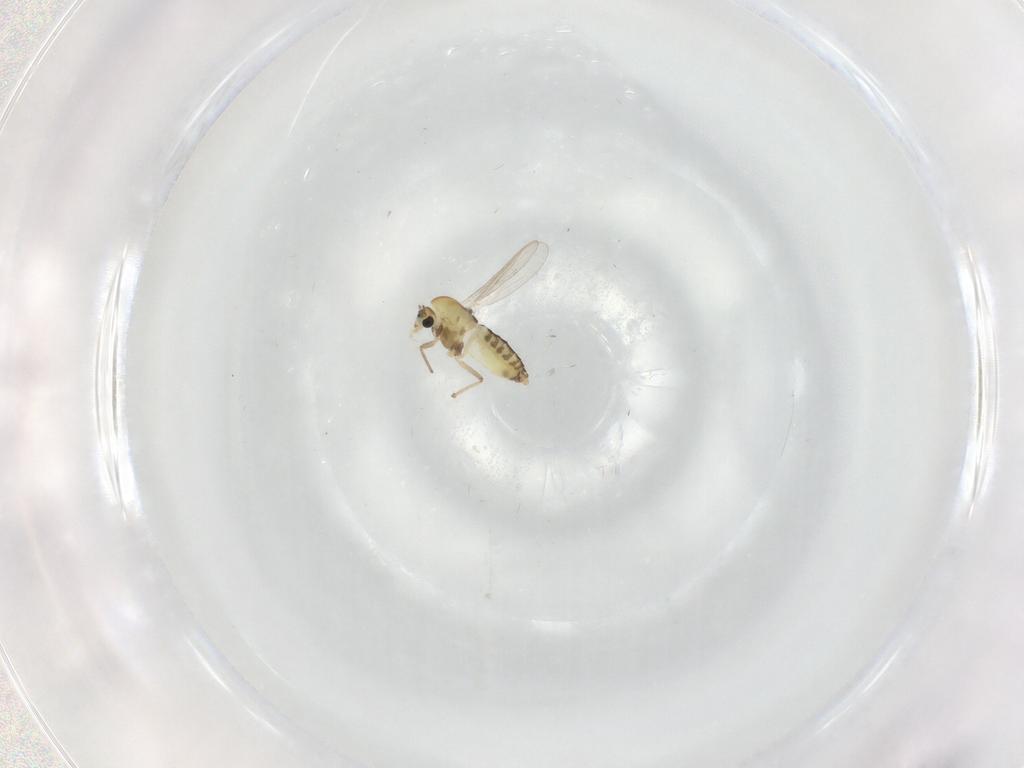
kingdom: Animalia
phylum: Arthropoda
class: Insecta
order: Diptera
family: Chironomidae
